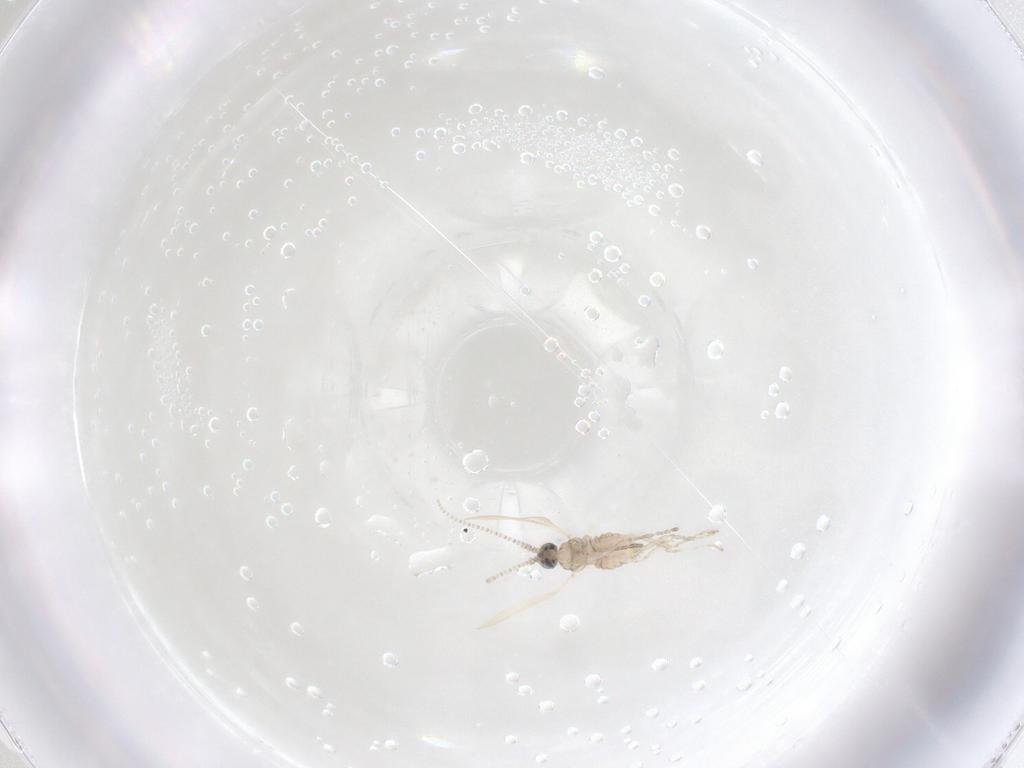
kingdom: Animalia
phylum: Arthropoda
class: Insecta
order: Diptera
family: Cecidomyiidae
